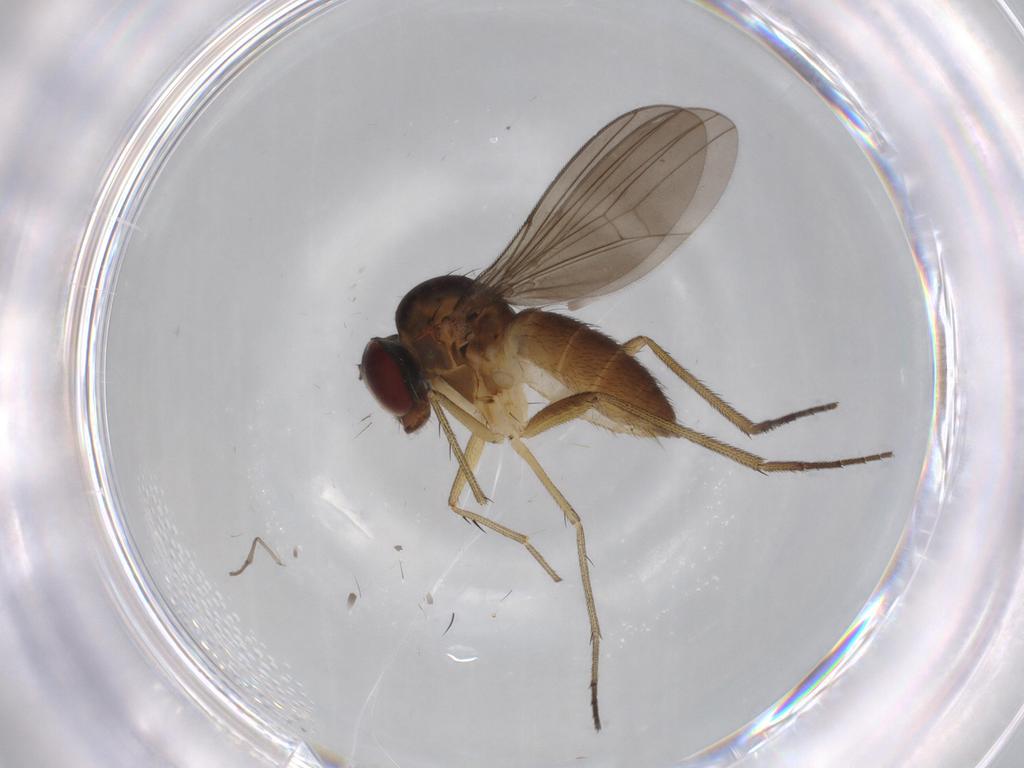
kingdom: Animalia
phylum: Arthropoda
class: Insecta
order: Diptera
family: Dolichopodidae
